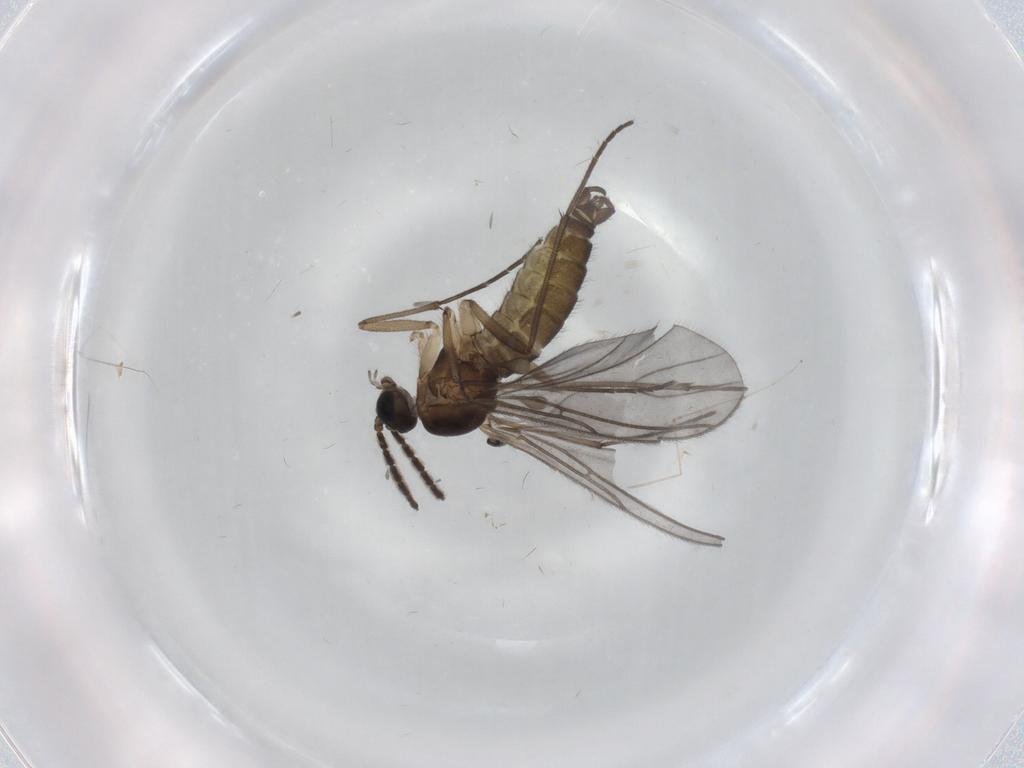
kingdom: Animalia
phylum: Arthropoda
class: Insecta
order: Diptera
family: Cecidomyiidae
